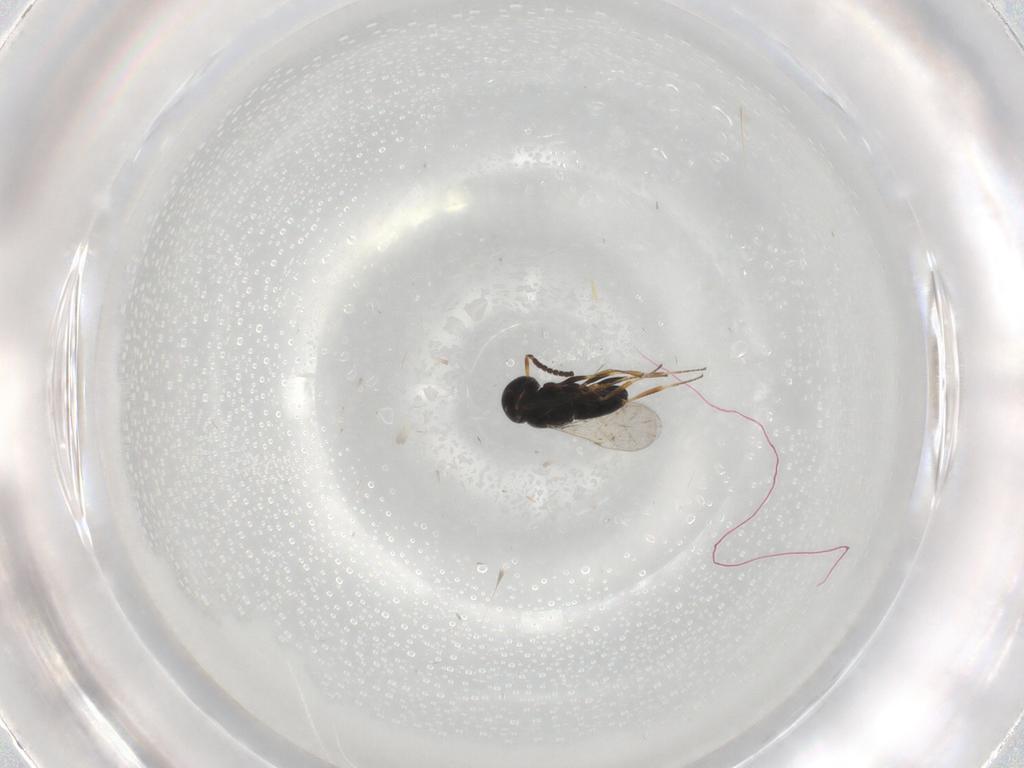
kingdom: Animalia
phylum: Arthropoda
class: Insecta
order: Coleoptera
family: Curculionidae
